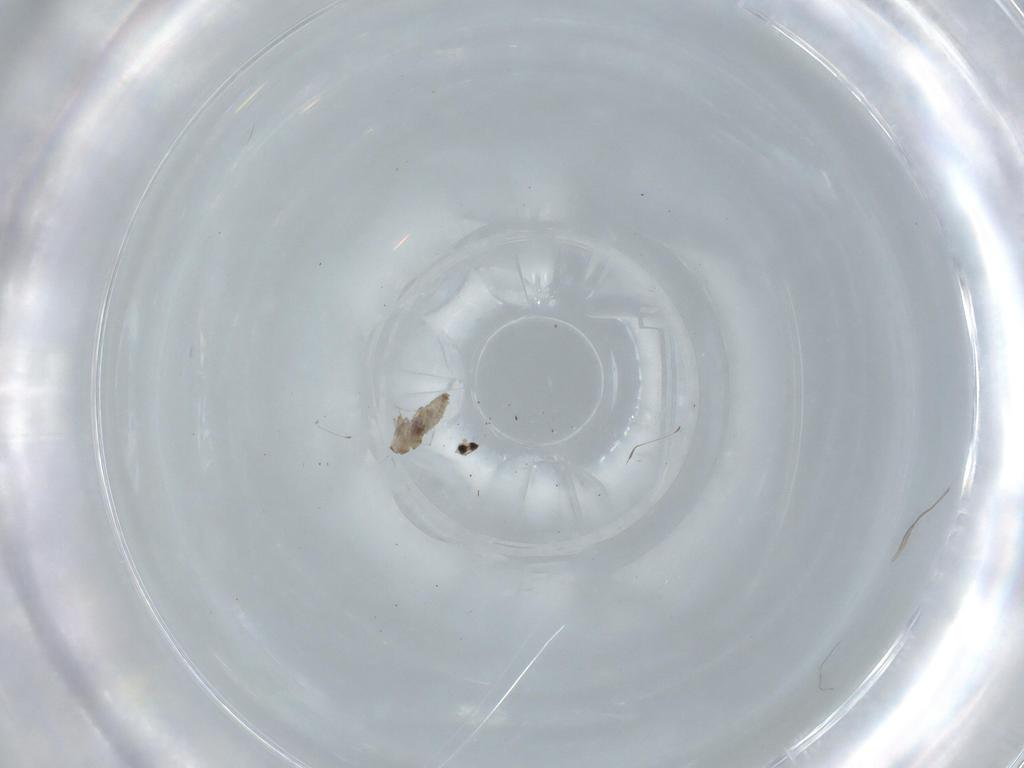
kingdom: Animalia
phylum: Arthropoda
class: Insecta
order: Diptera
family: Cecidomyiidae
